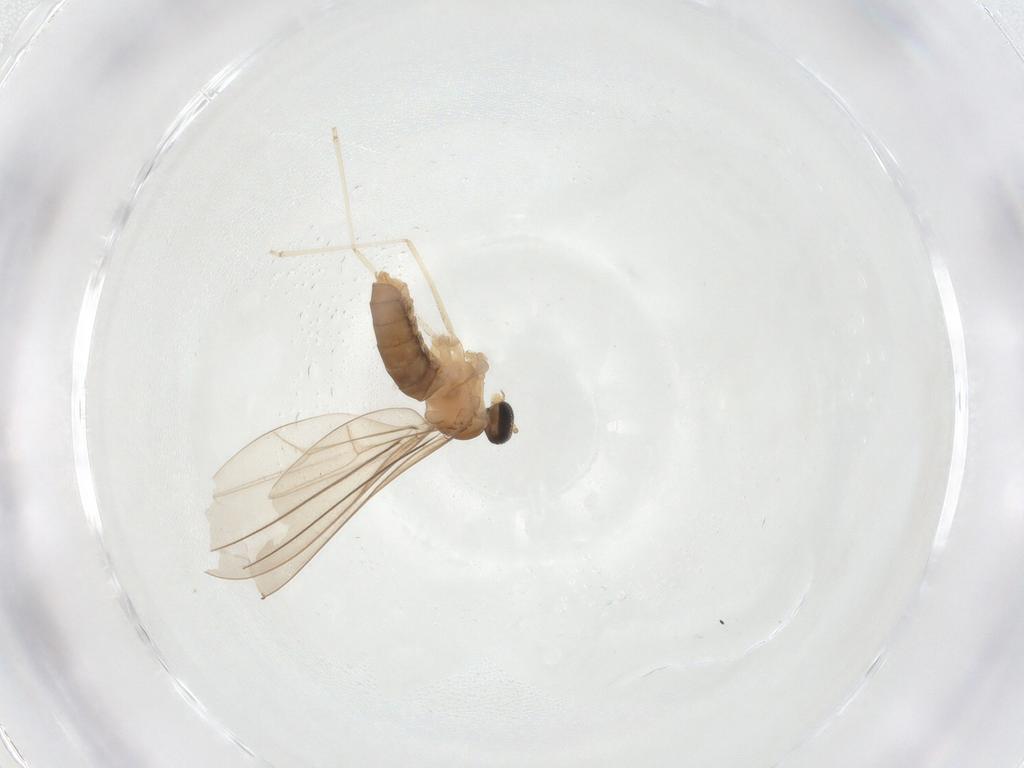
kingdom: Animalia
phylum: Arthropoda
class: Insecta
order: Diptera
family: Cecidomyiidae
